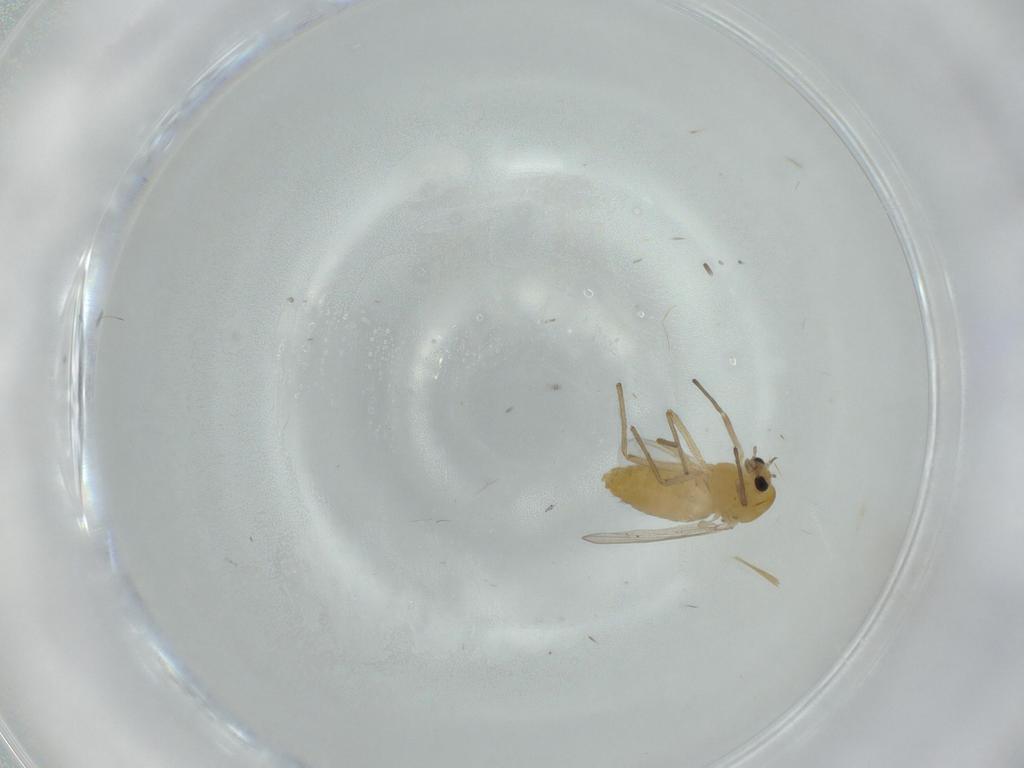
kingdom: Animalia
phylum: Arthropoda
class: Insecta
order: Diptera
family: Chironomidae
